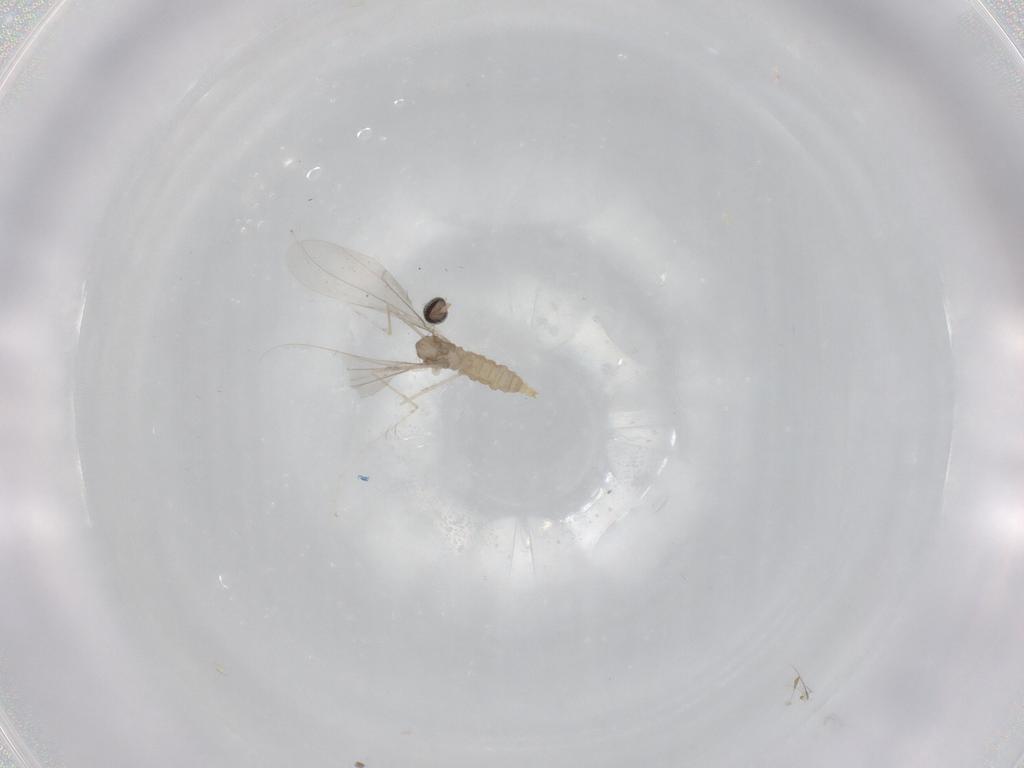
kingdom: Animalia
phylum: Arthropoda
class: Insecta
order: Diptera
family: Cecidomyiidae
